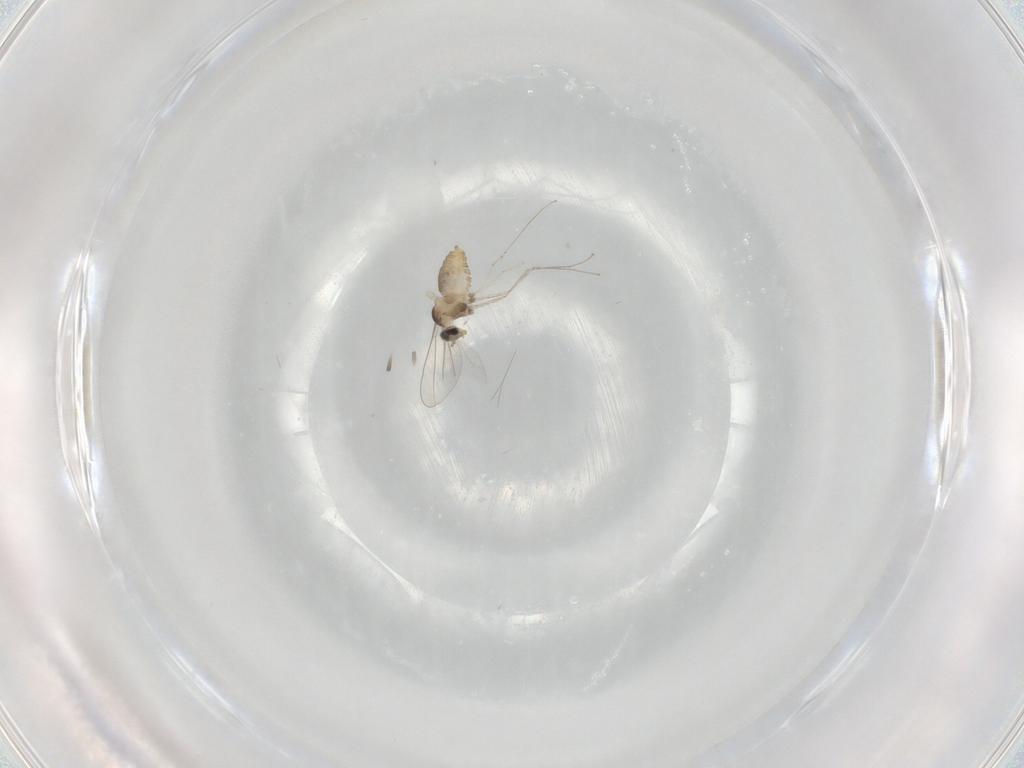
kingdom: Animalia
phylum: Arthropoda
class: Insecta
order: Diptera
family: Cecidomyiidae
